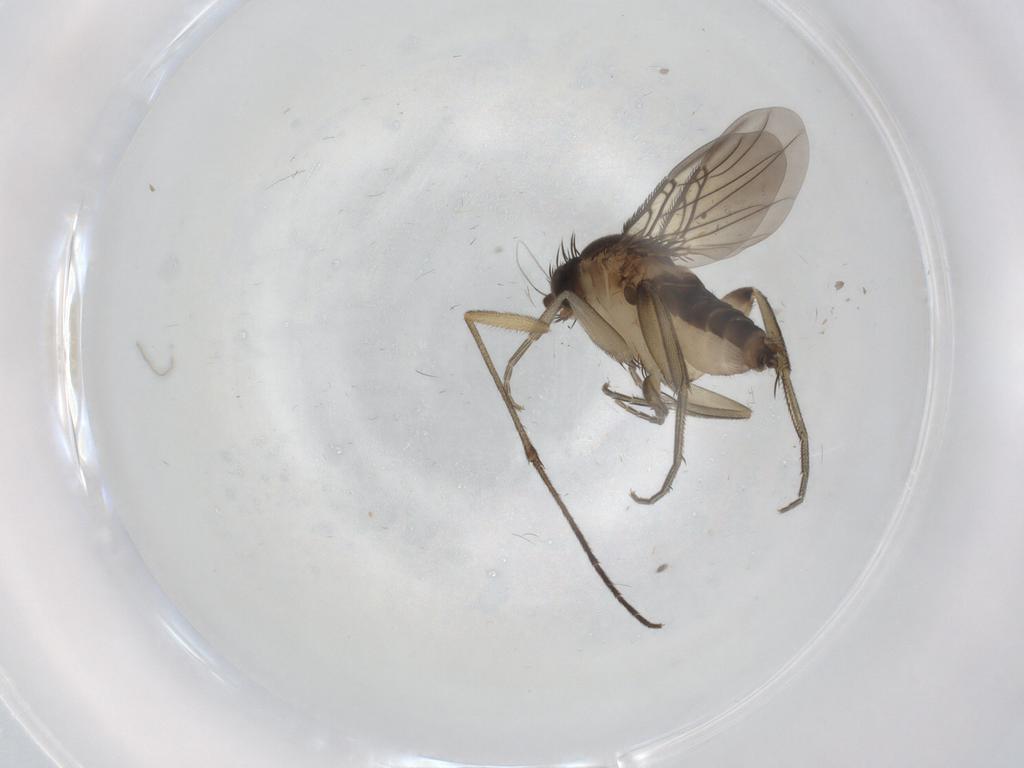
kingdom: Animalia
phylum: Arthropoda
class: Insecta
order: Diptera
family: Phoridae
